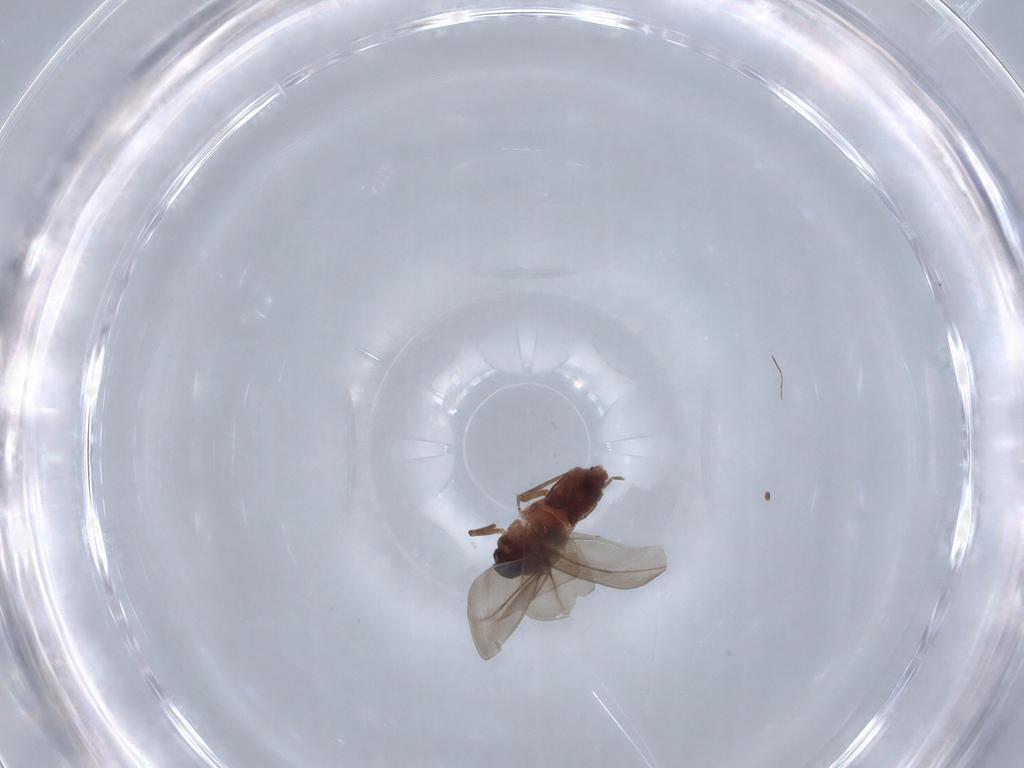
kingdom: Animalia
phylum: Arthropoda
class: Insecta
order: Hemiptera
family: Aleyrodidae
